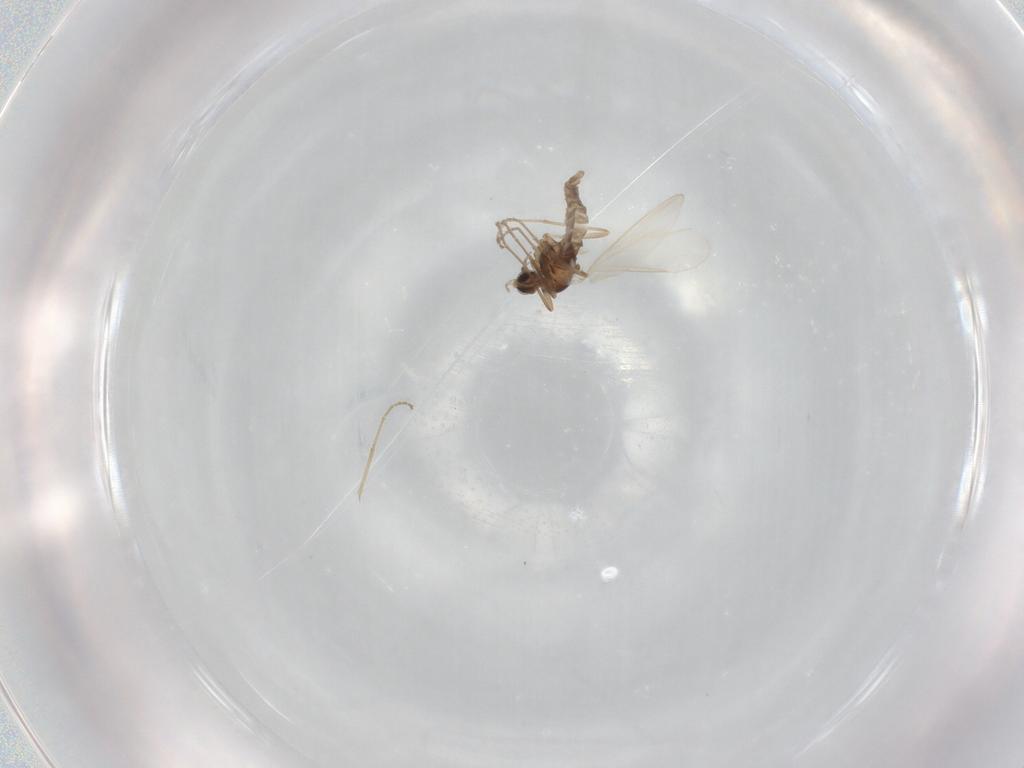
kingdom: Animalia
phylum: Arthropoda
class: Insecta
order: Diptera
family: Cecidomyiidae
